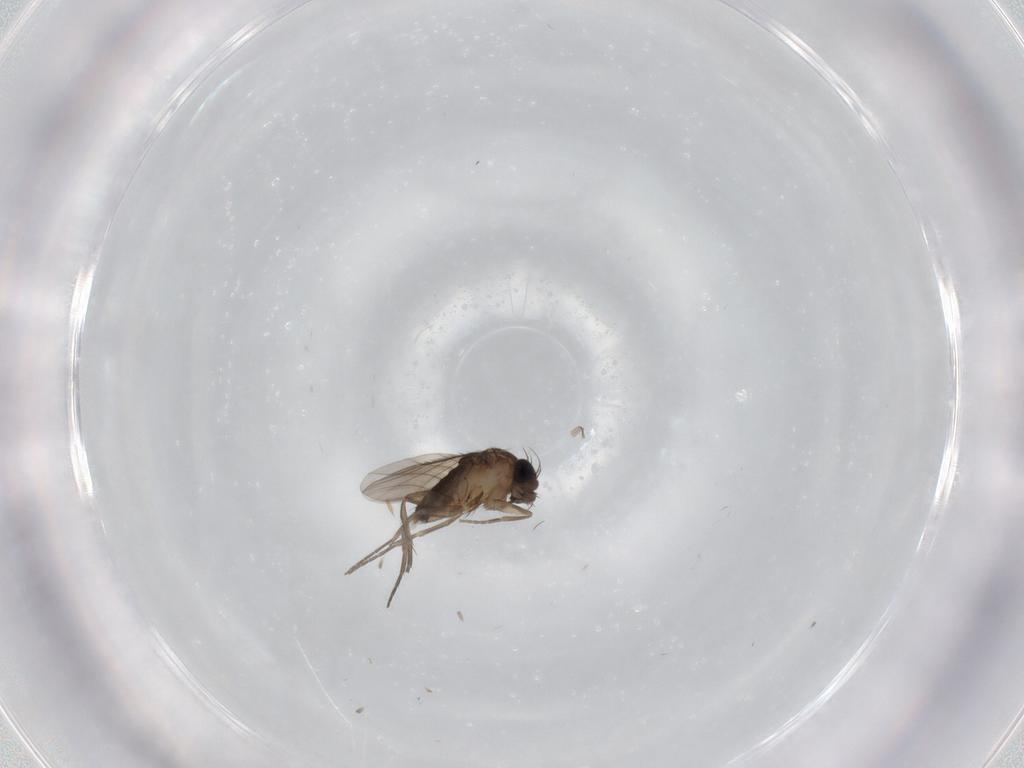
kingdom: Animalia
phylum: Arthropoda
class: Insecta
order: Diptera
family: Phoridae
